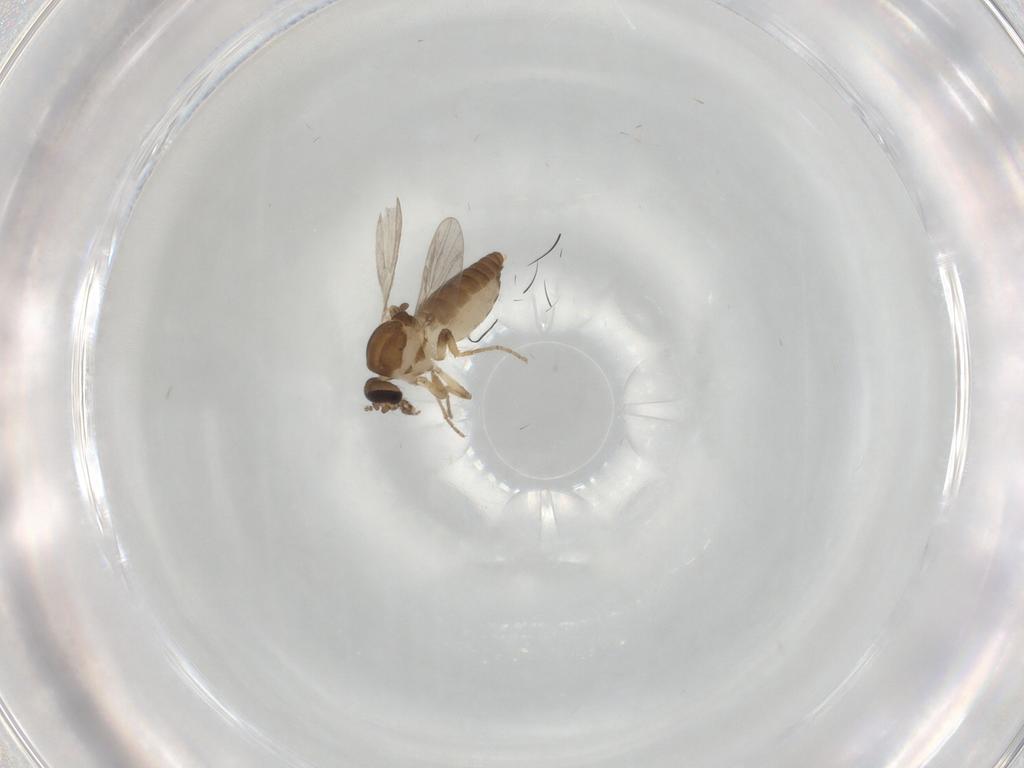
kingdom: Animalia
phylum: Arthropoda
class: Insecta
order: Diptera
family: Ceratopogonidae
